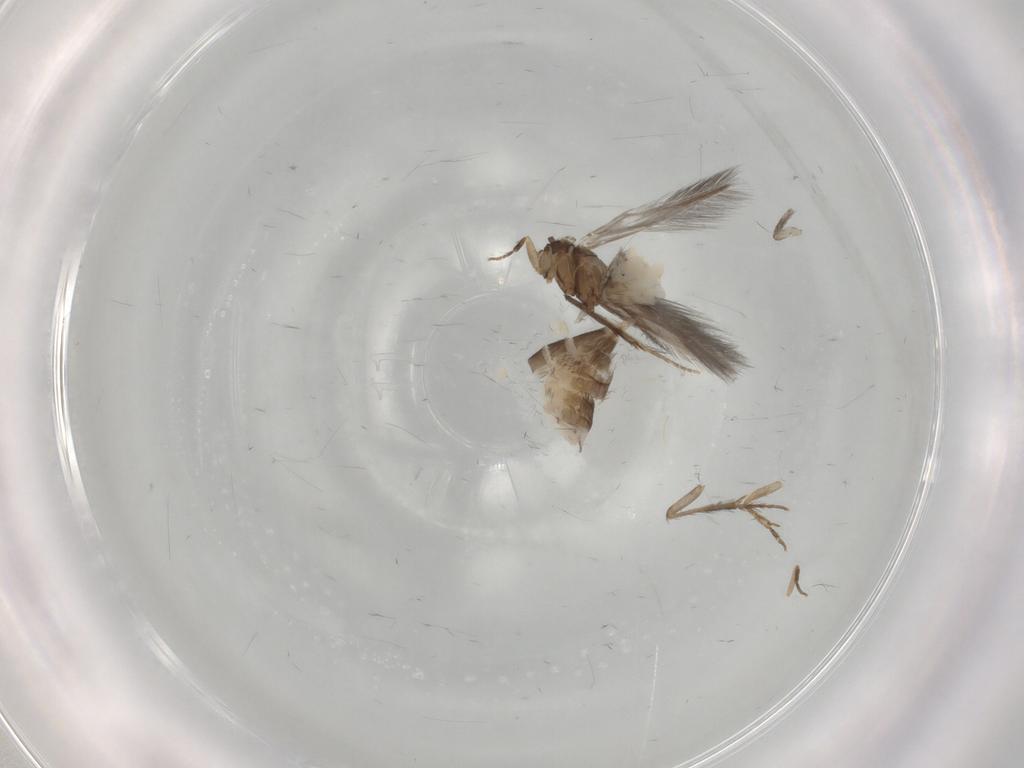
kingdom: Animalia
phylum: Arthropoda
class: Insecta
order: Trichoptera
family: Hydroptilidae
